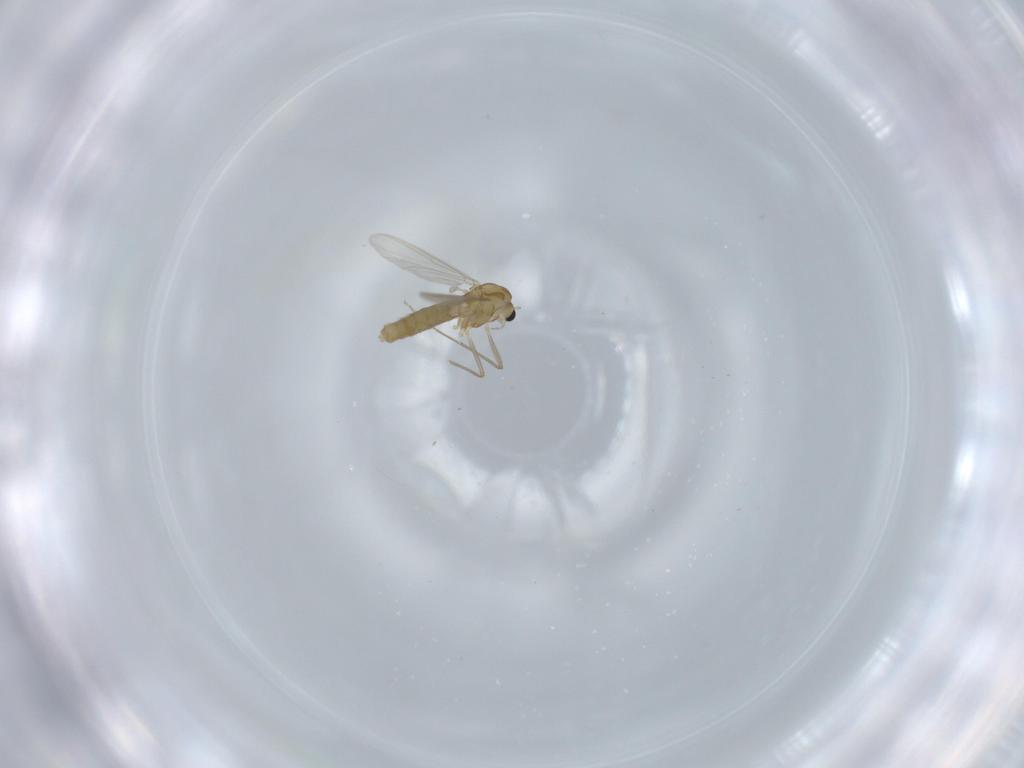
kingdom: Animalia
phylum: Arthropoda
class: Insecta
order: Diptera
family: Chironomidae
